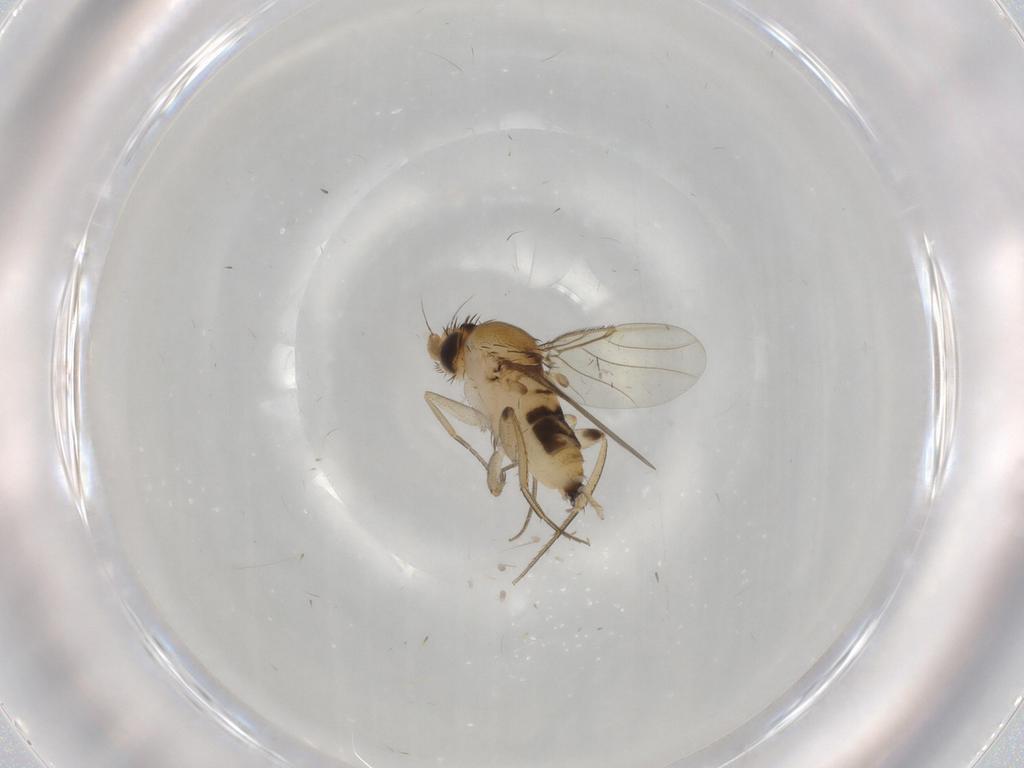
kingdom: Animalia
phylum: Arthropoda
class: Insecta
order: Diptera
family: Phoridae
